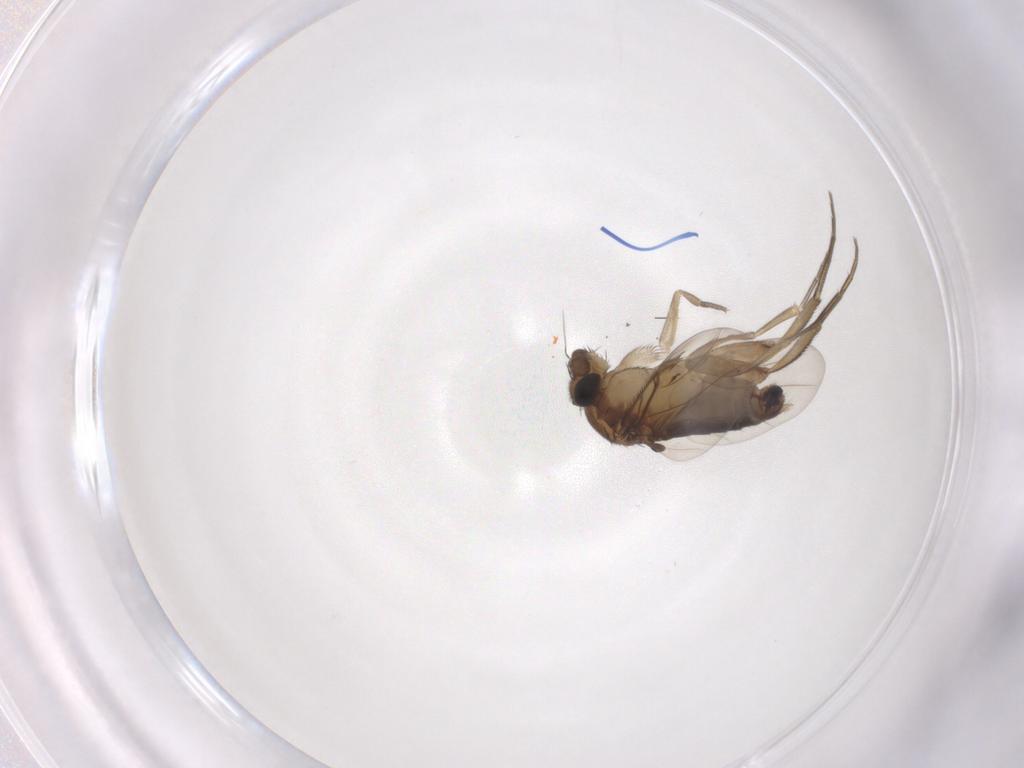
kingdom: Animalia
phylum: Arthropoda
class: Insecta
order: Diptera
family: Phoridae
